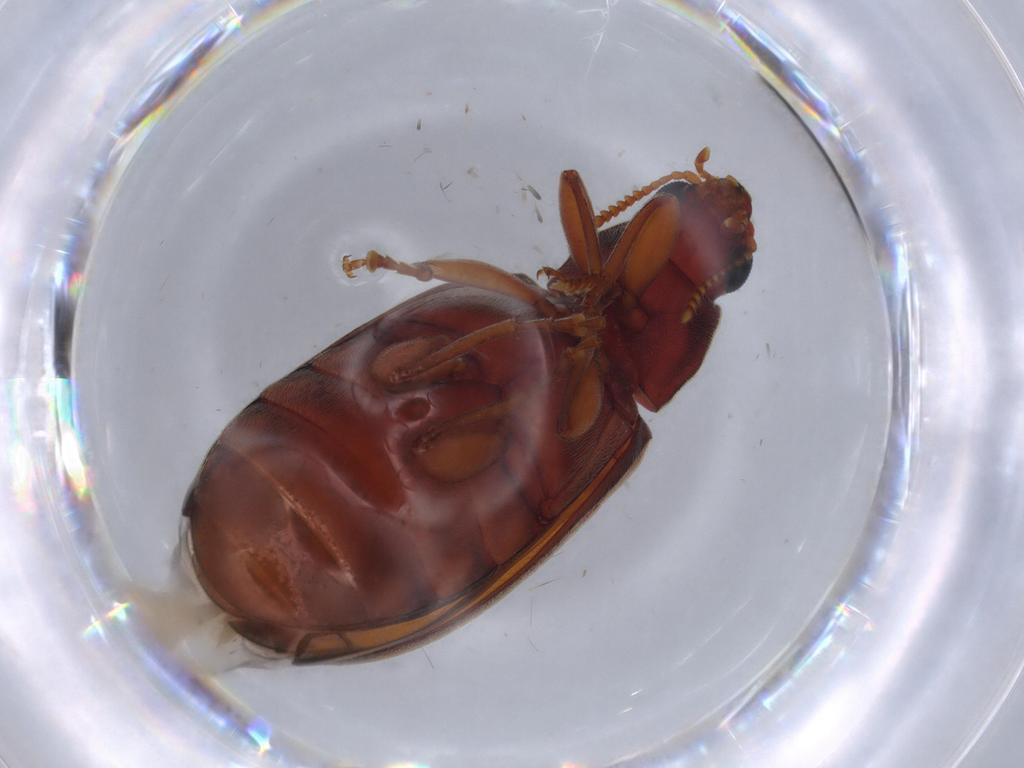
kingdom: Animalia
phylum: Arthropoda
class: Insecta
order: Coleoptera
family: Mycteridae
